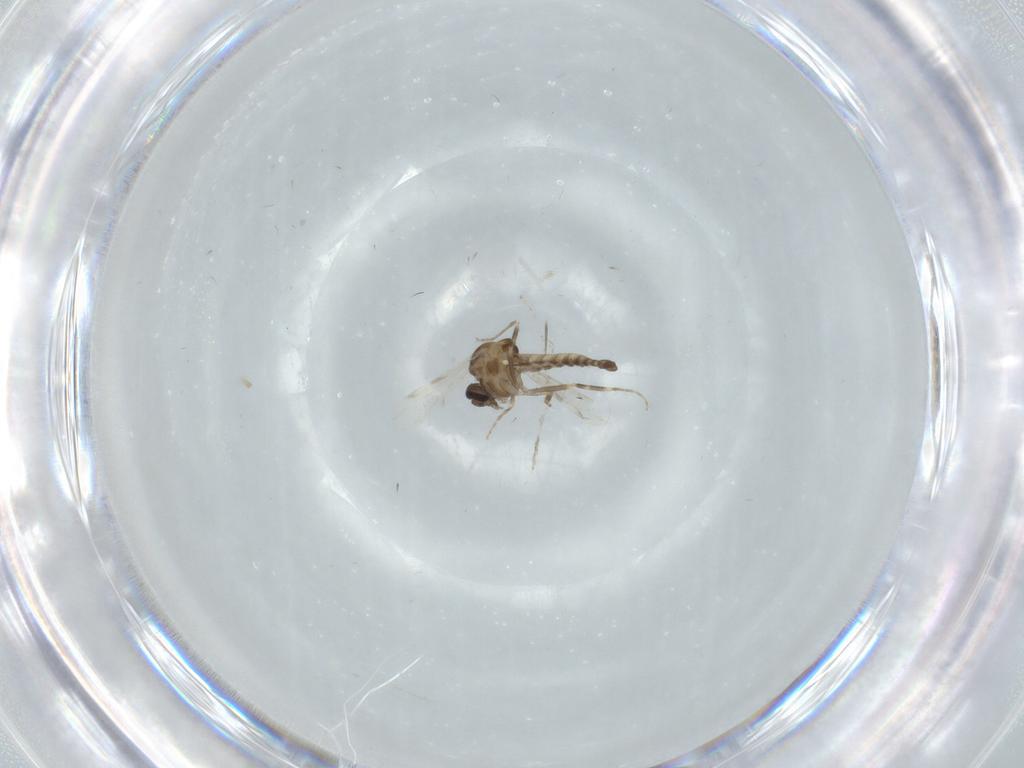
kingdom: Animalia
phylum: Arthropoda
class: Insecta
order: Diptera
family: Ceratopogonidae
